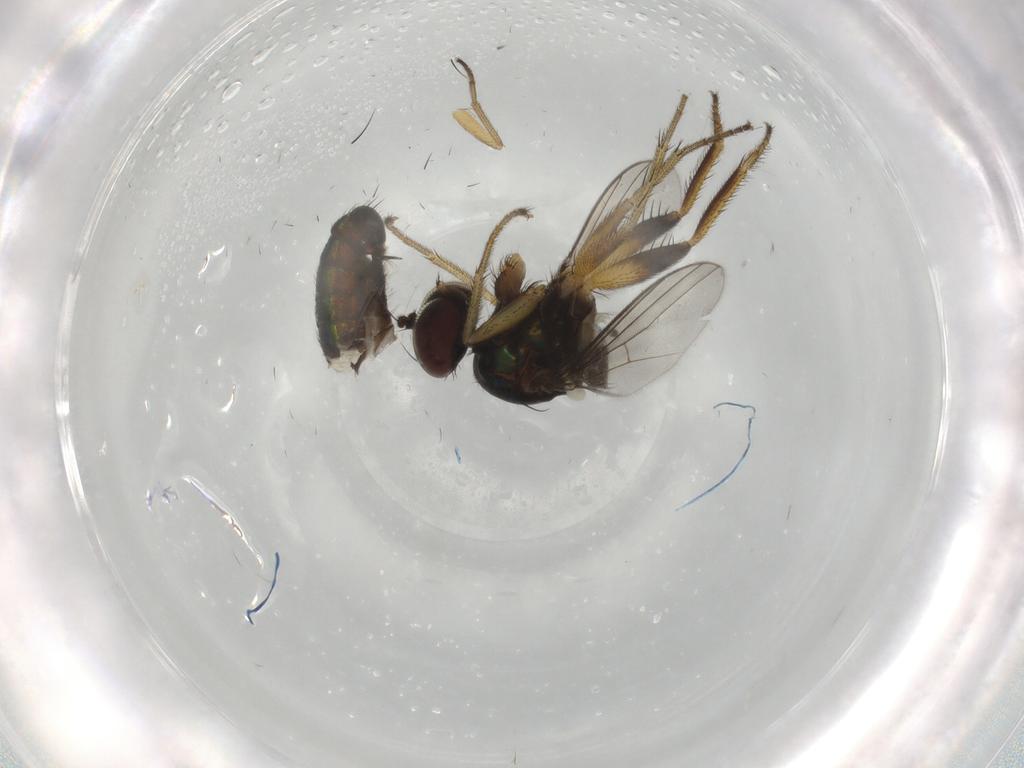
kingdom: Animalia
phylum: Arthropoda
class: Insecta
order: Diptera
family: Dolichopodidae
